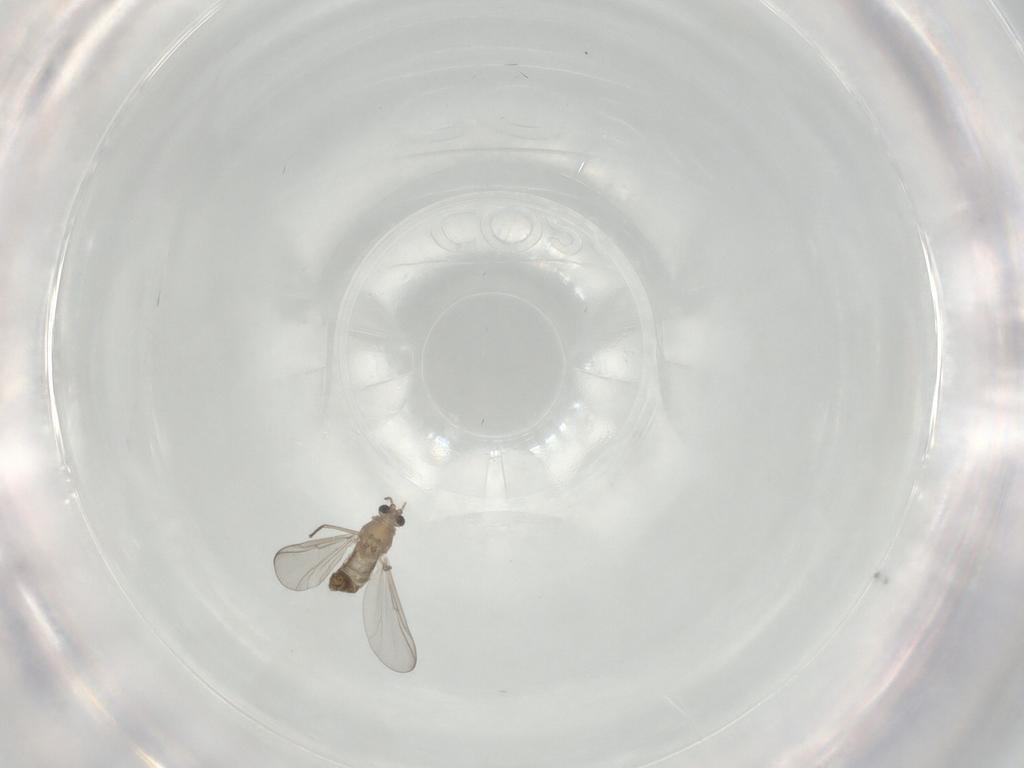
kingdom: Animalia
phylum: Arthropoda
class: Insecta
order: Diptera
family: Chironomidae
